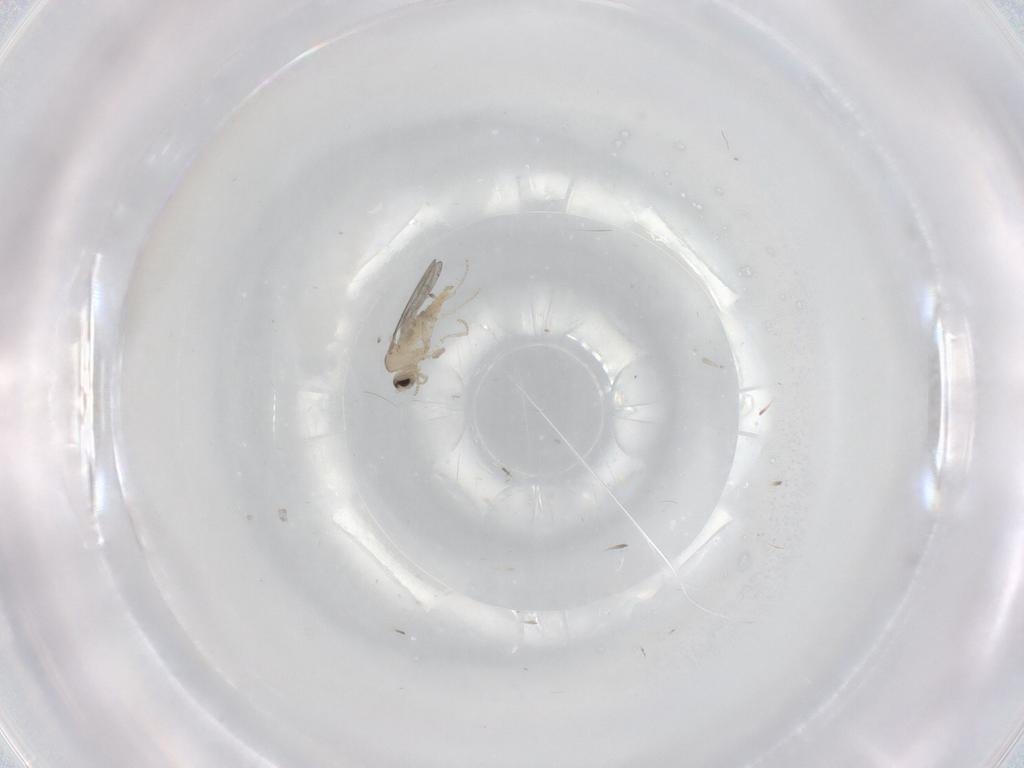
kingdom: Animalia
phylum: Arthropoda
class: Insecta
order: Diptera
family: Cecidomyiidae
